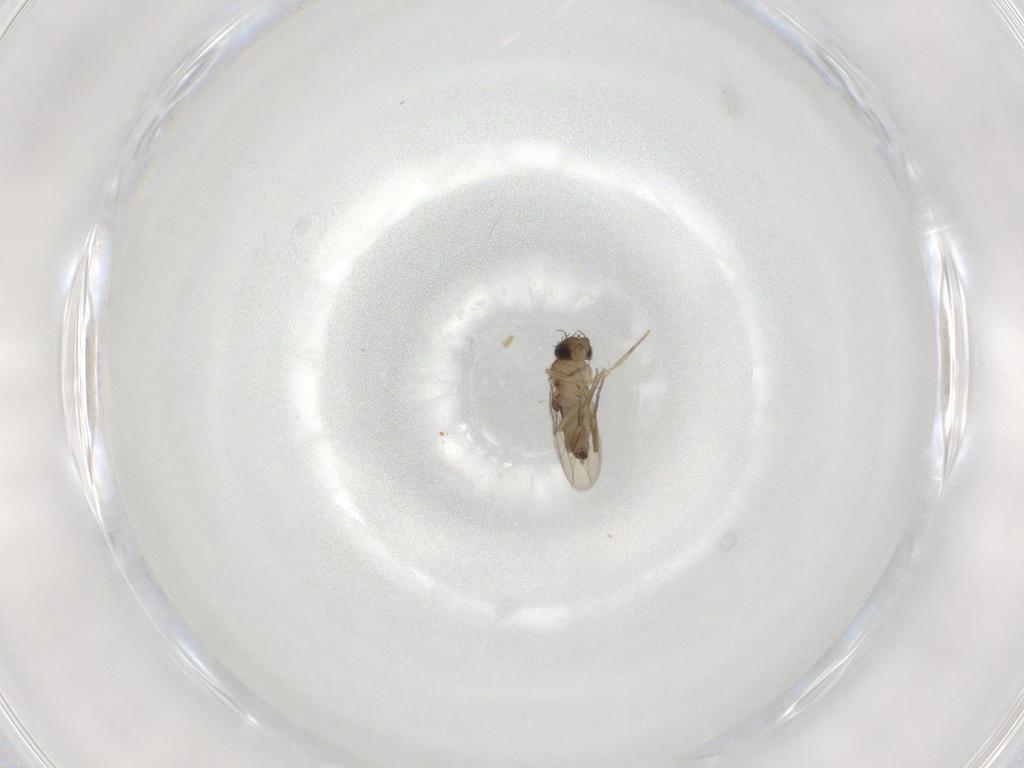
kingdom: Animalia
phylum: Arthropoda
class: Insecta
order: Diptera
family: Phoridae
